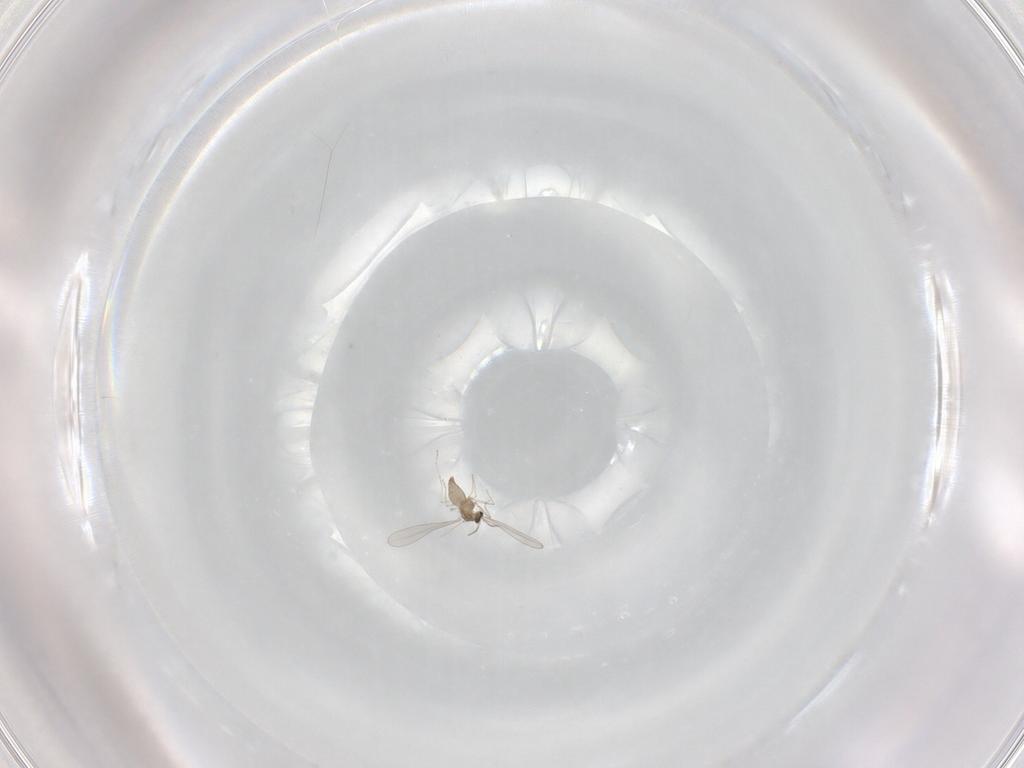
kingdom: Animalia
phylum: Arthropoda
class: Insecta
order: Diptera
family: Cecidomyiidae
